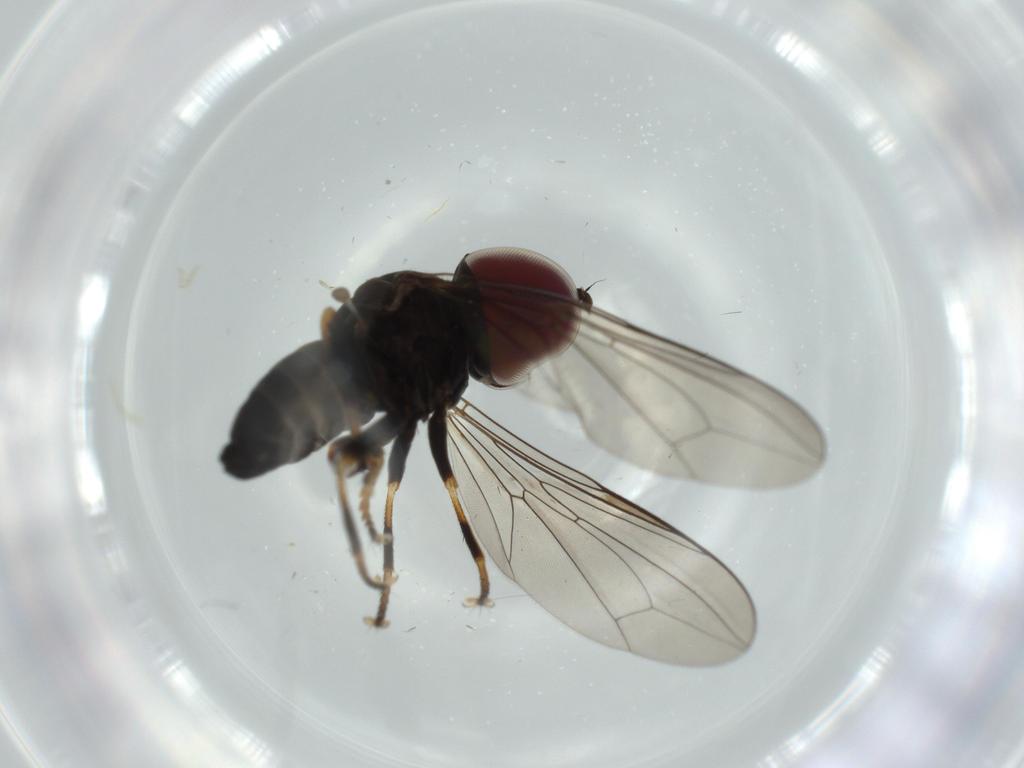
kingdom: Animalia
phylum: Arthropoda
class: Insecta
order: Diptera
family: Pipunculidae
